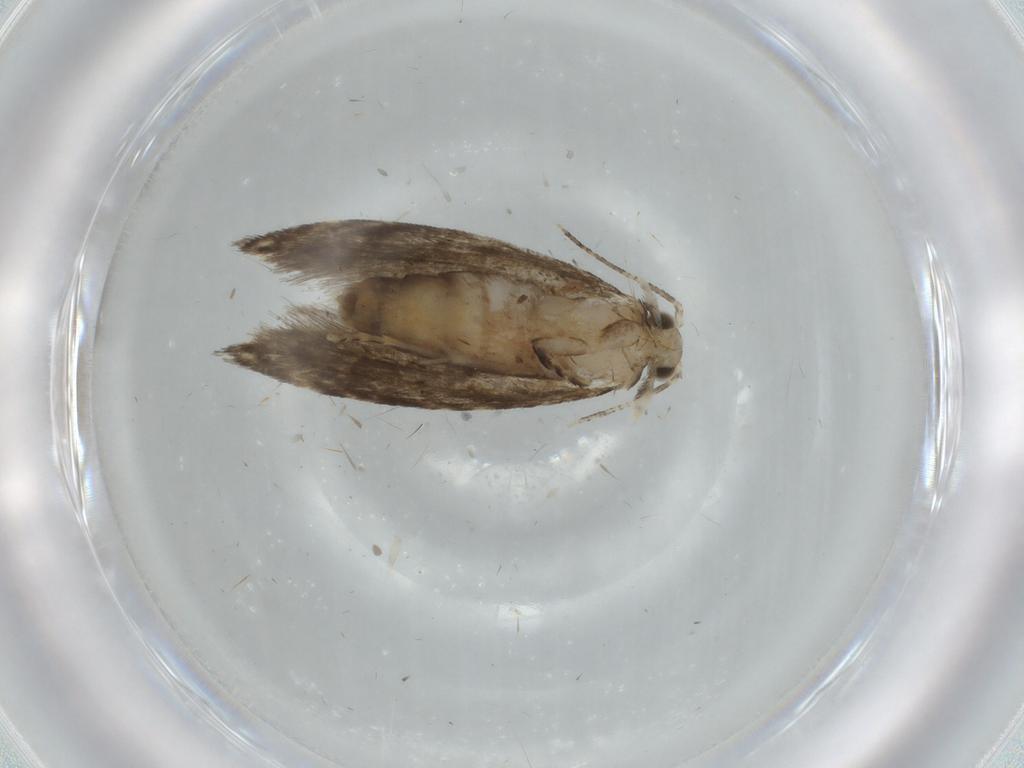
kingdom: Animalia
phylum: Arthropoda
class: Insecta
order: Lepidoptera
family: Tineidae
